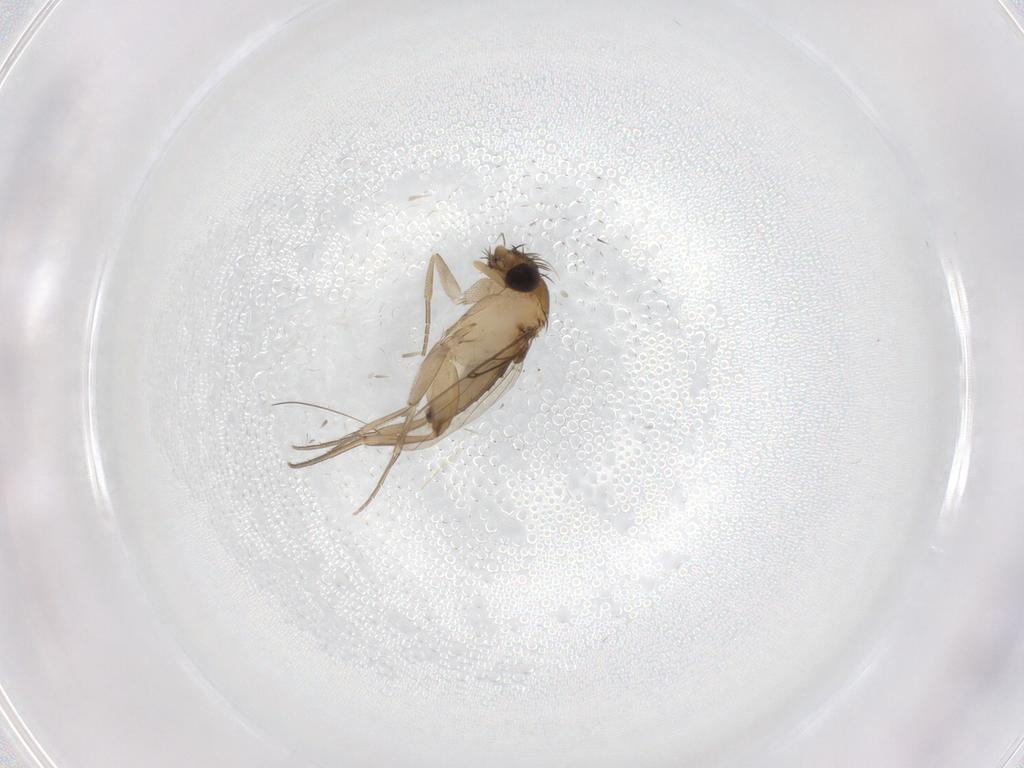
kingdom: Animalia
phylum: Arthropoda
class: Insecta
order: Diptera
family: Phoridae
